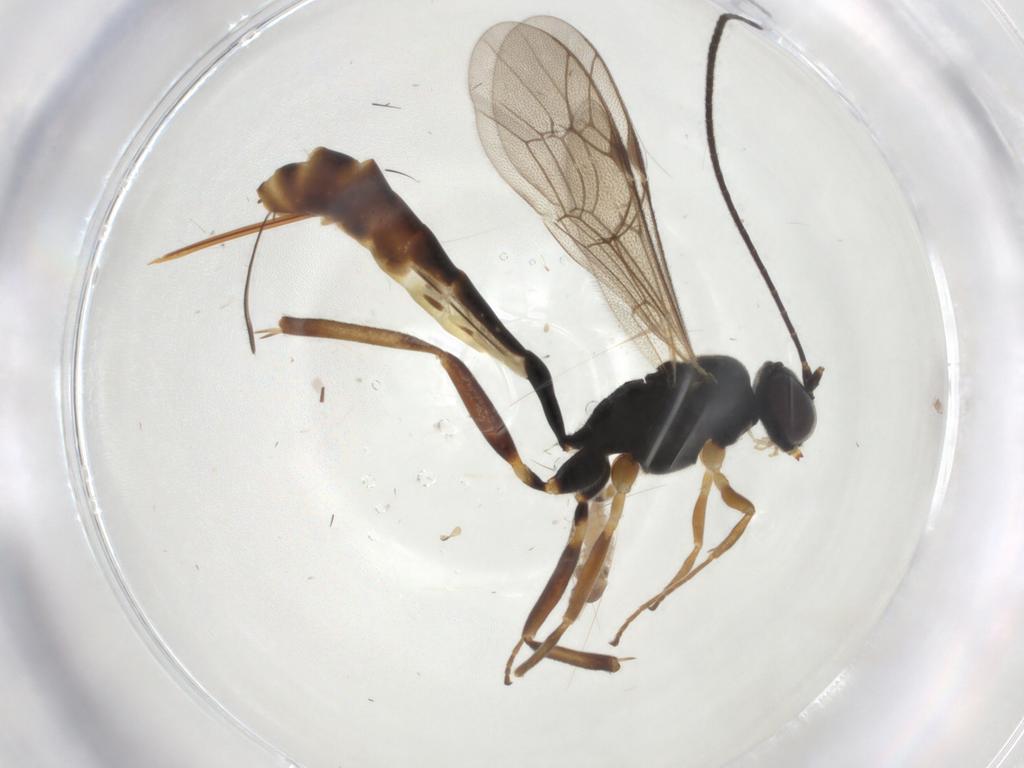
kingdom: Animalia
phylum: Arthropoda
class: Insecta
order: Hymenoptera
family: Ichneumonidae
